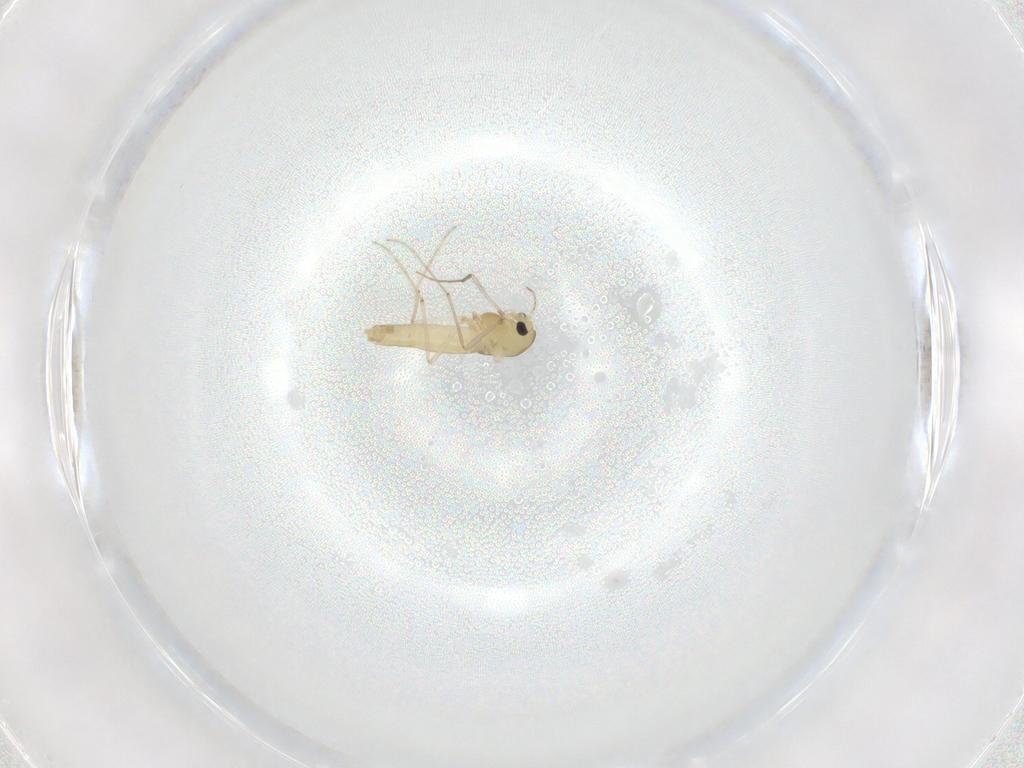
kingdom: Animalia
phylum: Arthropoda
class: Insecta
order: Diptera
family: Chironomidae
